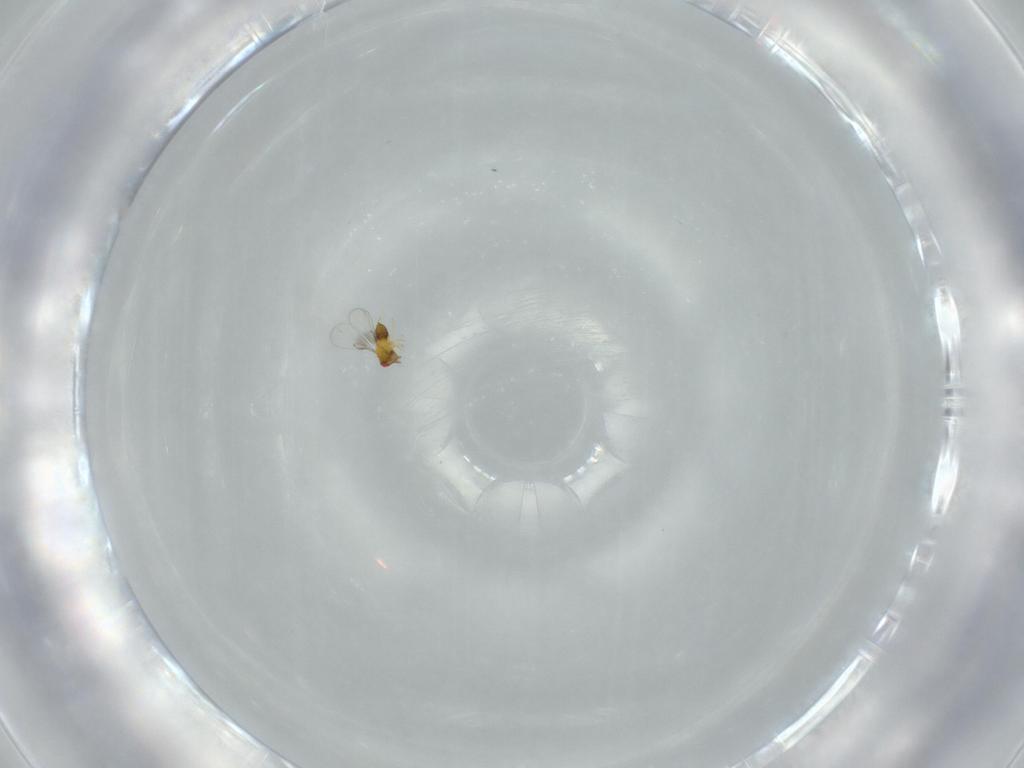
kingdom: Animalia
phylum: Arthropoda
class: Insecta
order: Hymenoptera
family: Trichogrammatidae
